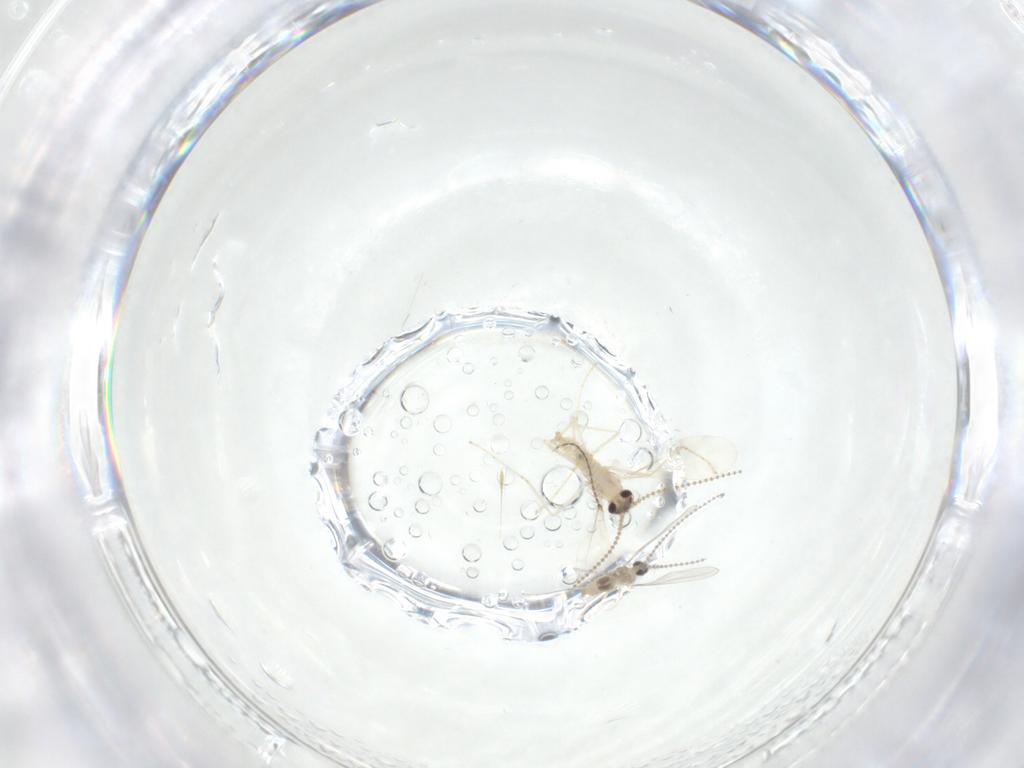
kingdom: Animalia
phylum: Arthropoda
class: Insecta
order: Diptera
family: Cecidomyiidae
